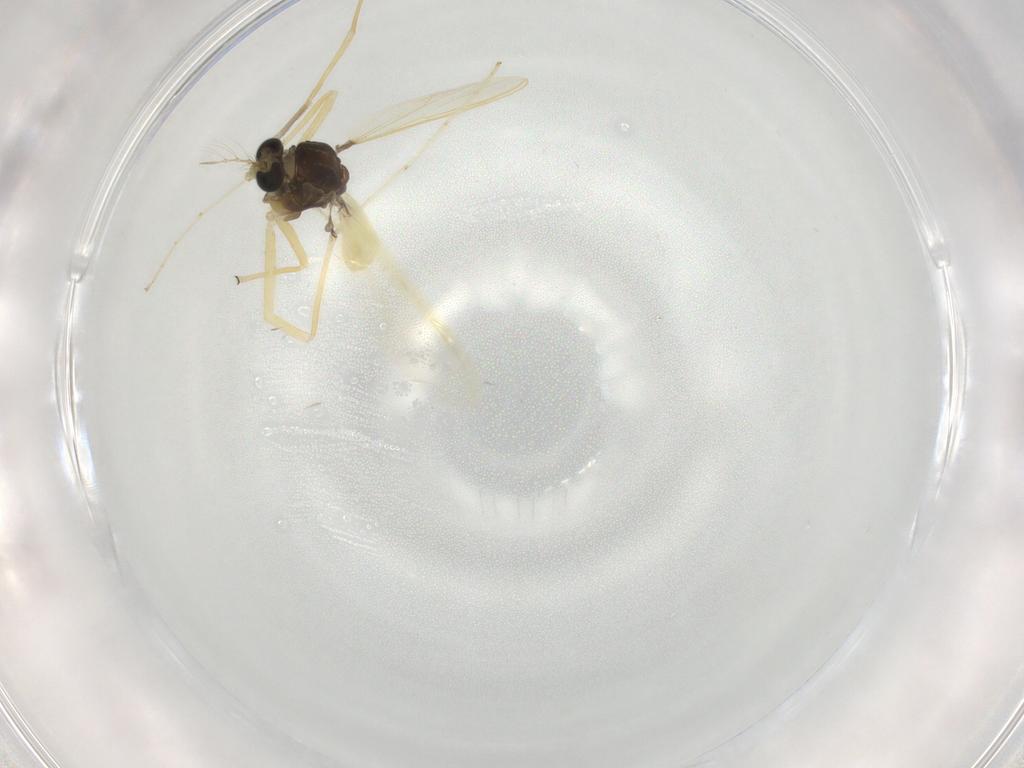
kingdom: Animalia
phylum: Arthropoda
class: Insecta
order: Diptera
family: Chironomidae
